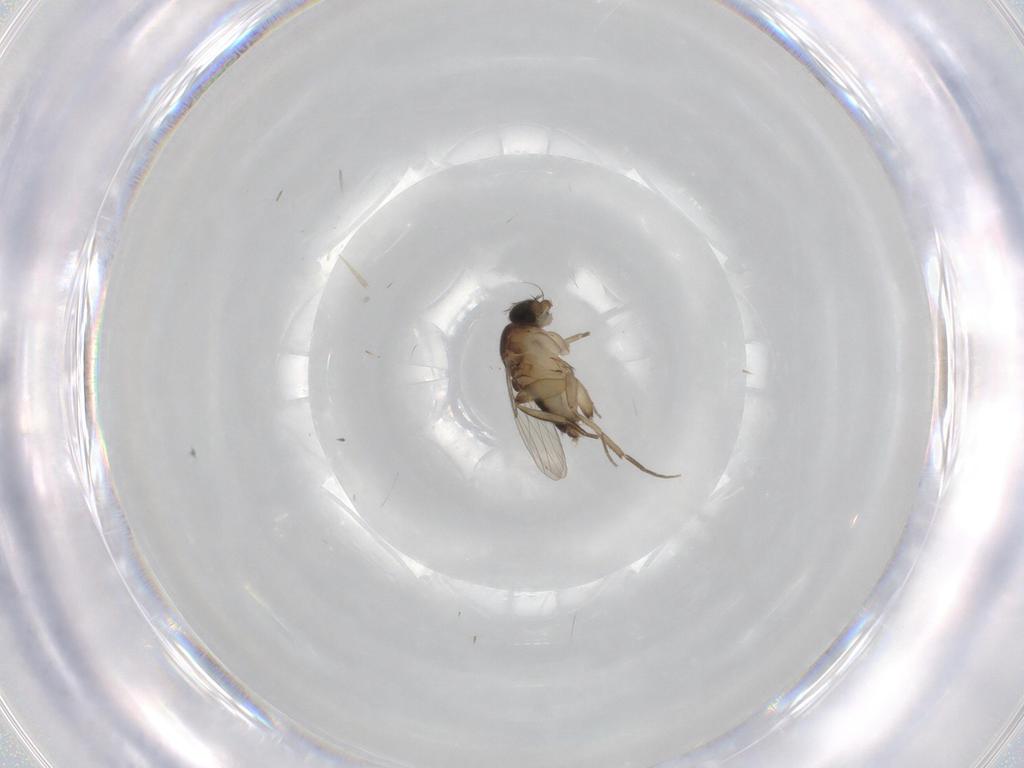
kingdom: Animalia
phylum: Arthropoda
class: Insecta
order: Diptera
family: Phoridae
